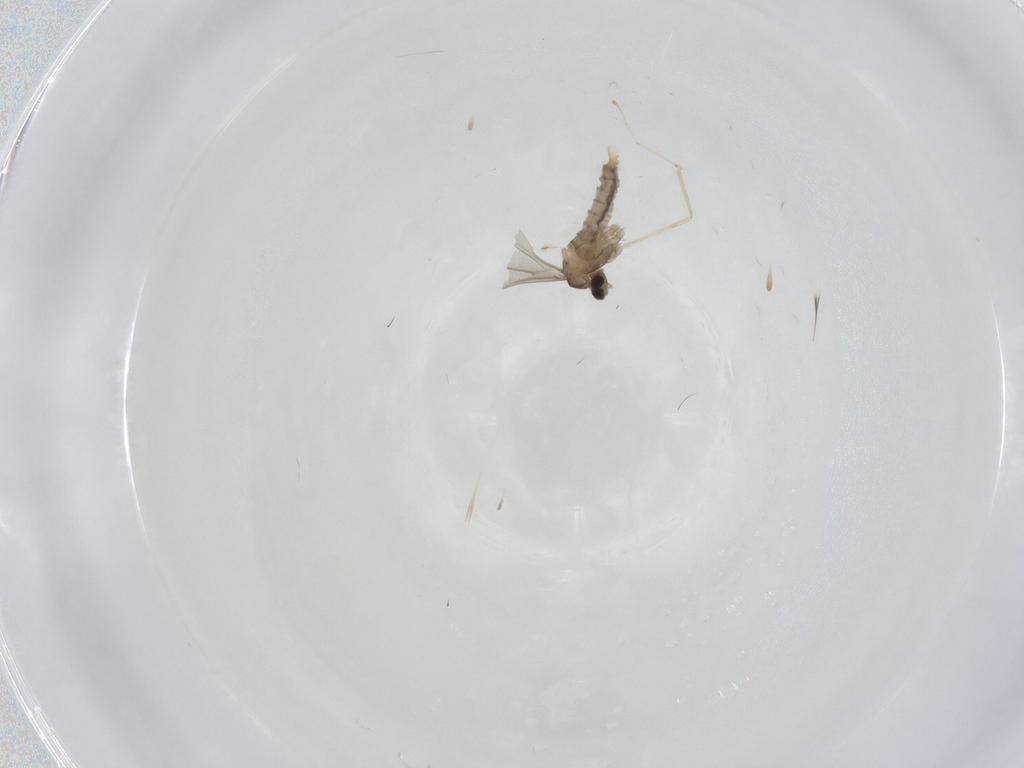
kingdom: Animalia
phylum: Arthropoda
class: Insecta
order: Diptera
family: Cecidomyiidae
